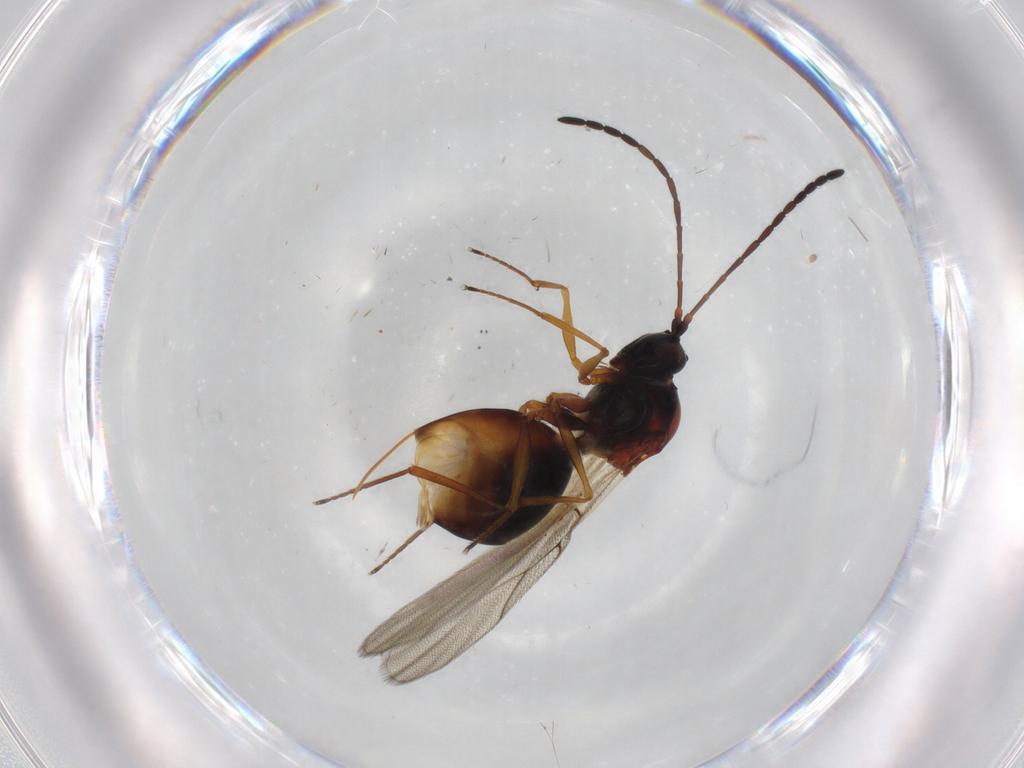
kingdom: Animalia
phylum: Arthropoda
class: Insecta
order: Hymenoptera
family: Figitidae
